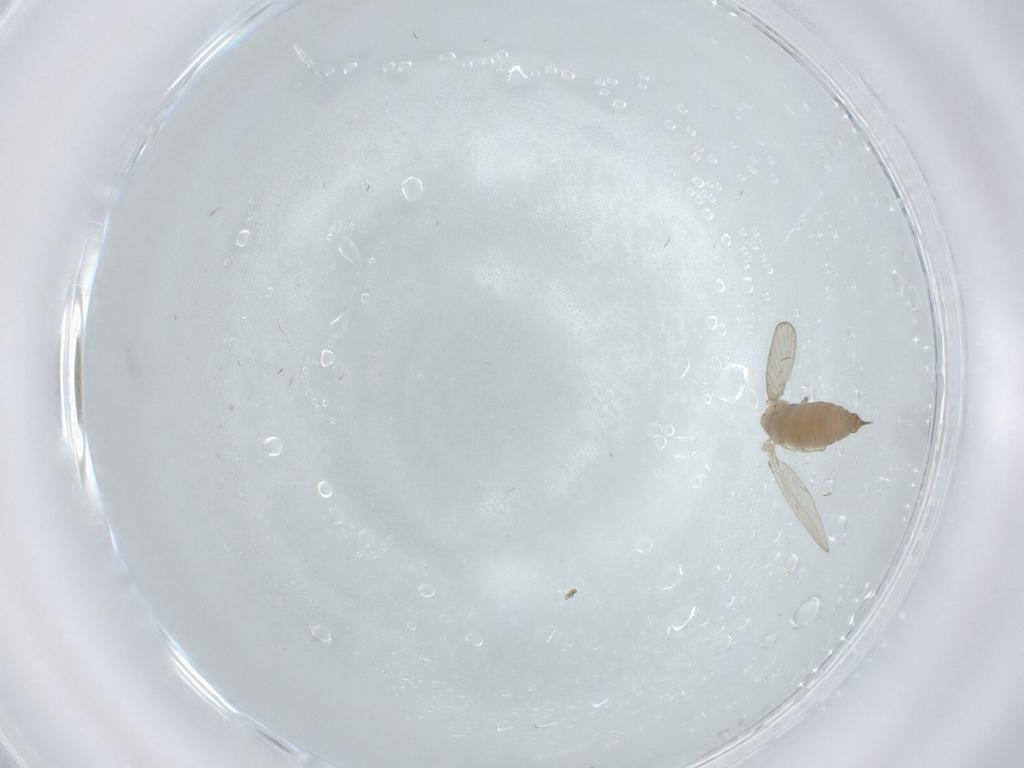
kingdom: Animalia
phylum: Arthropoda
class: Insecta
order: Diptera
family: Psychodidae
